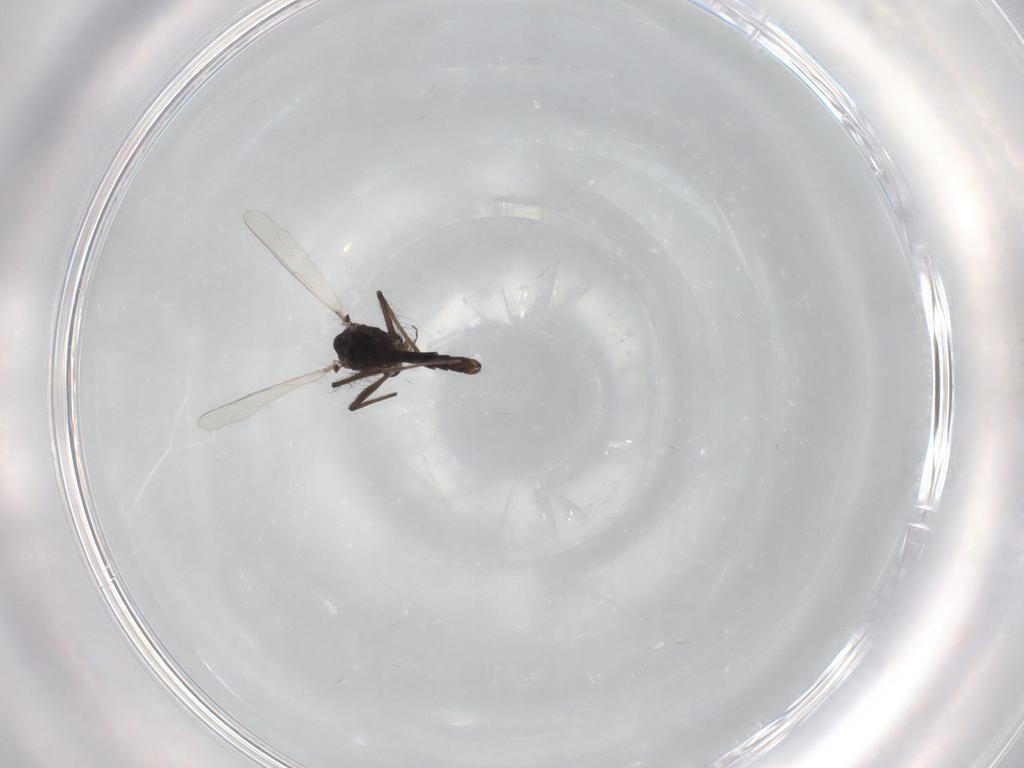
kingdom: Animalia
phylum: Arthropoda
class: Insecta
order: Diptera
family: Chironomidae
